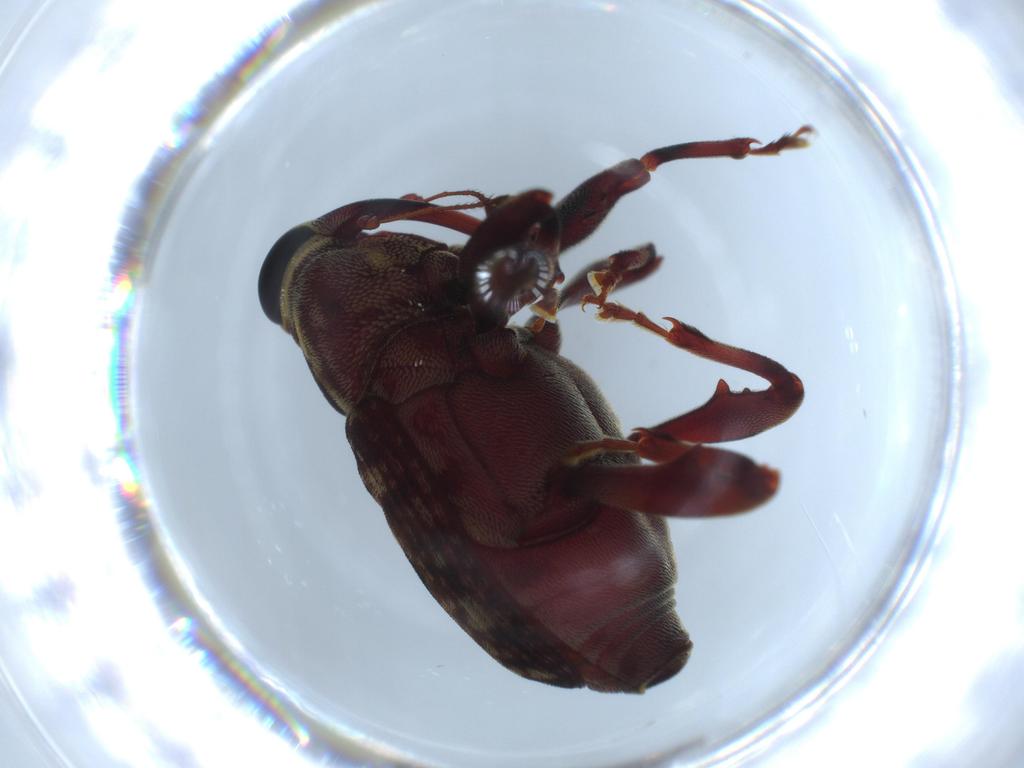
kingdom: Animalia
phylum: Arthropoda
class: Insecta
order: Coleoptera
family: Curculionidae
